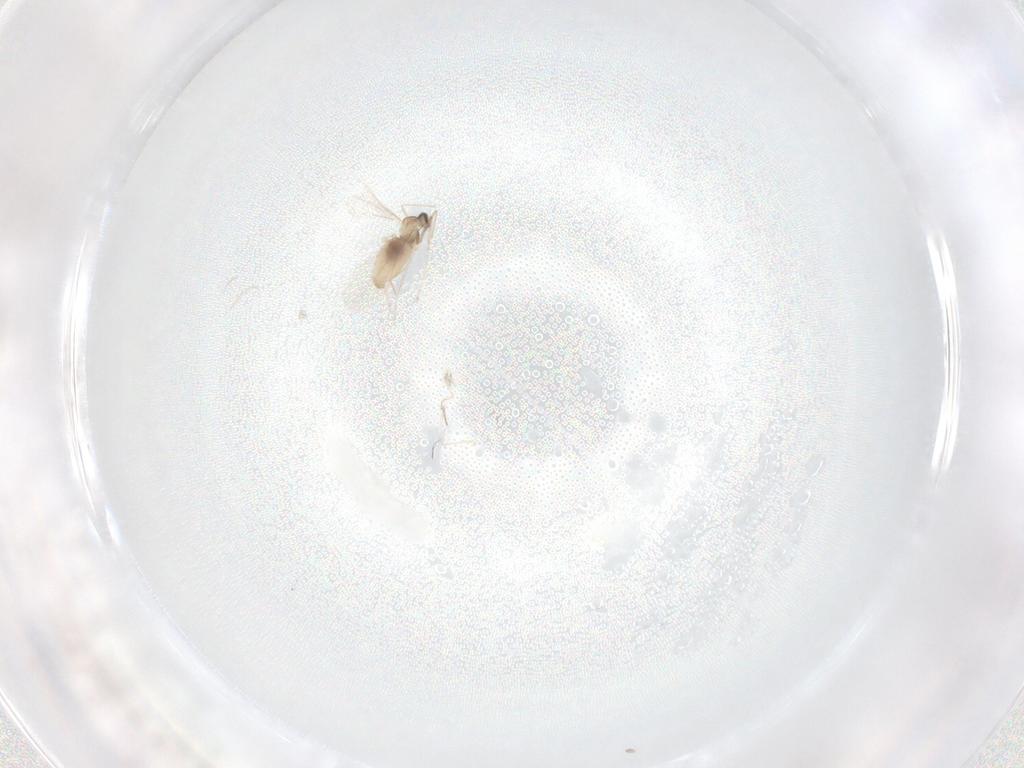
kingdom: Animalia
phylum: Arthropoda
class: Insecta
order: Diptera
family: Cecidomyiidae
